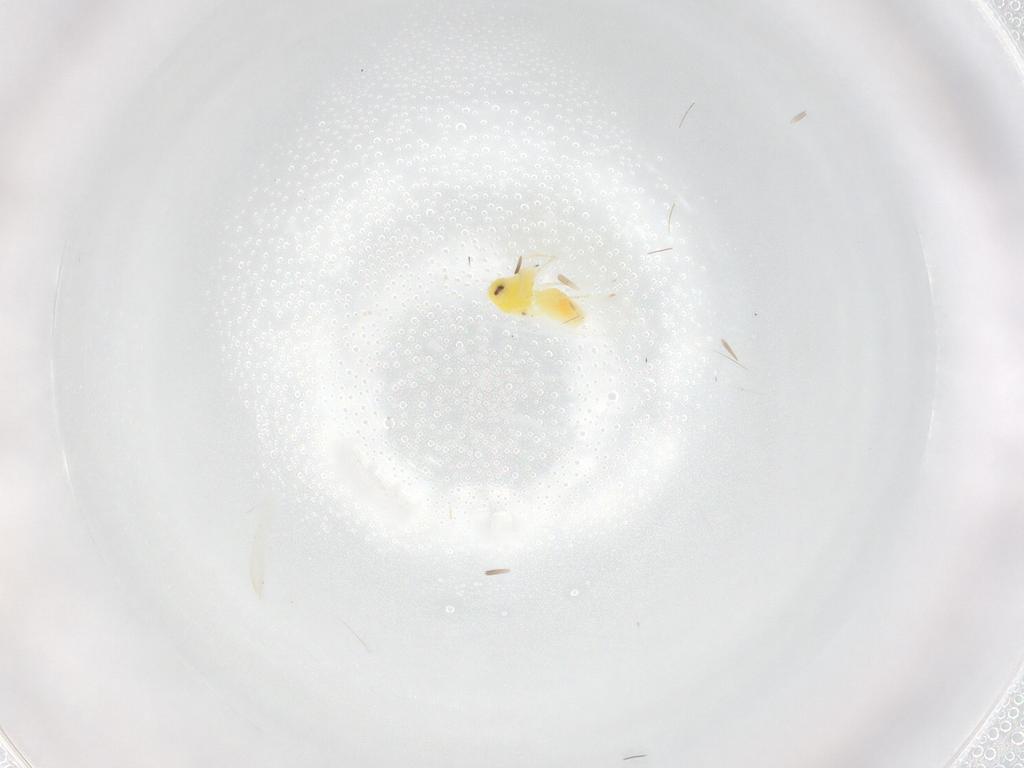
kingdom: Animalia
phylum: Arthropoda
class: Insecta
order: Hemiptera
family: Aleyrodidae
